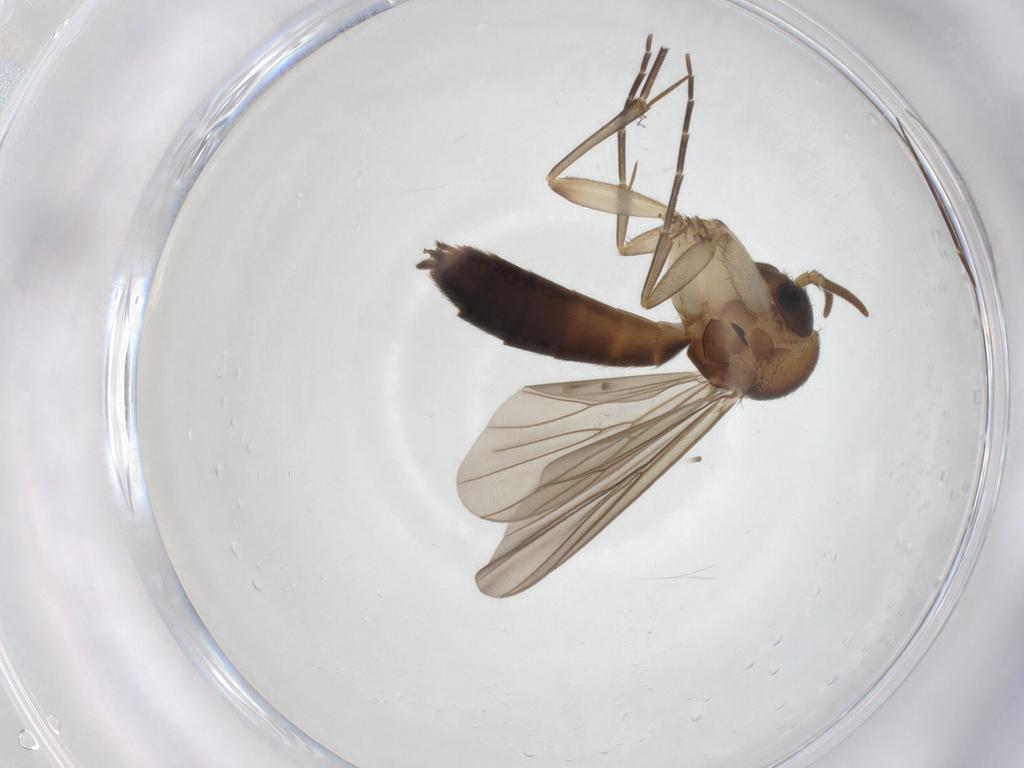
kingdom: Animalia
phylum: Arthropoda
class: Insecta
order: Diptera
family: Mycetophilidae
